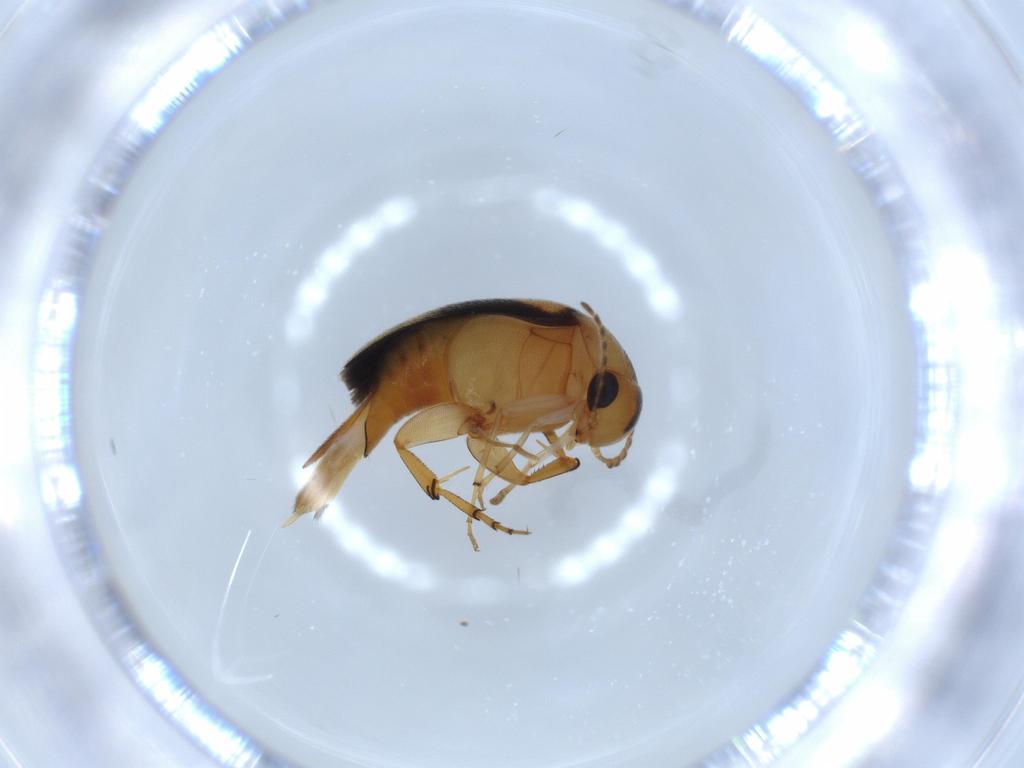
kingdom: Animalia
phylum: Arthropoda
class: Insecta
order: Coleoptera
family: Mordellidae
